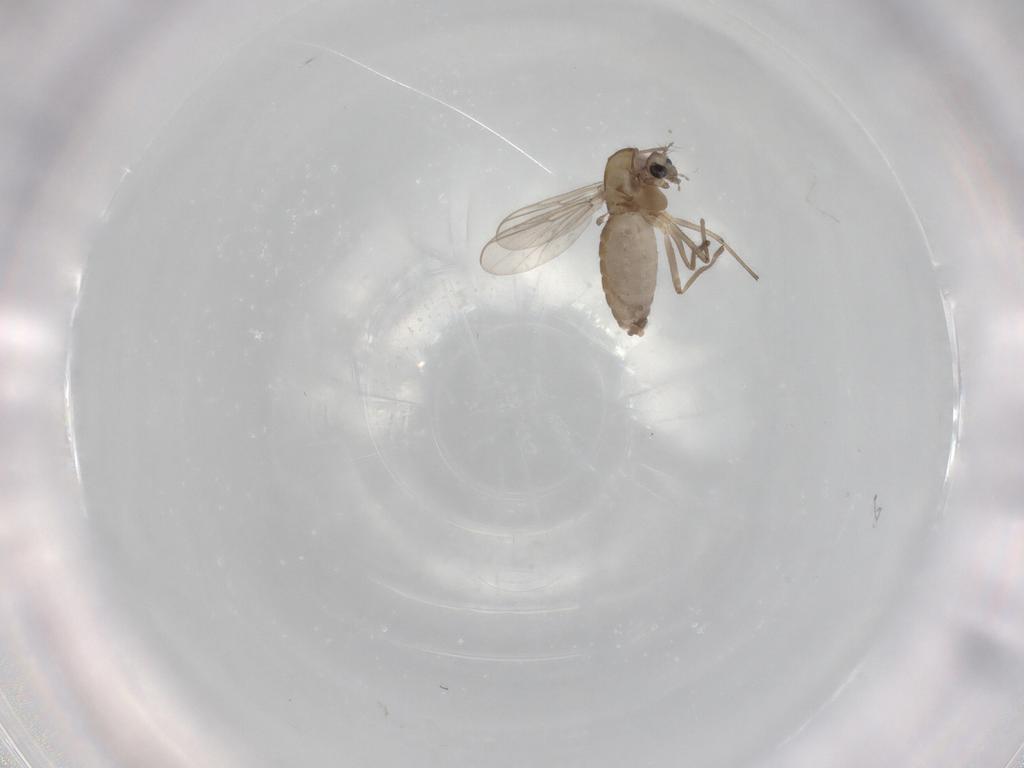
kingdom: Animalia
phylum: Arthropoda
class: Insecta
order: Diptera
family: Chironomidae
